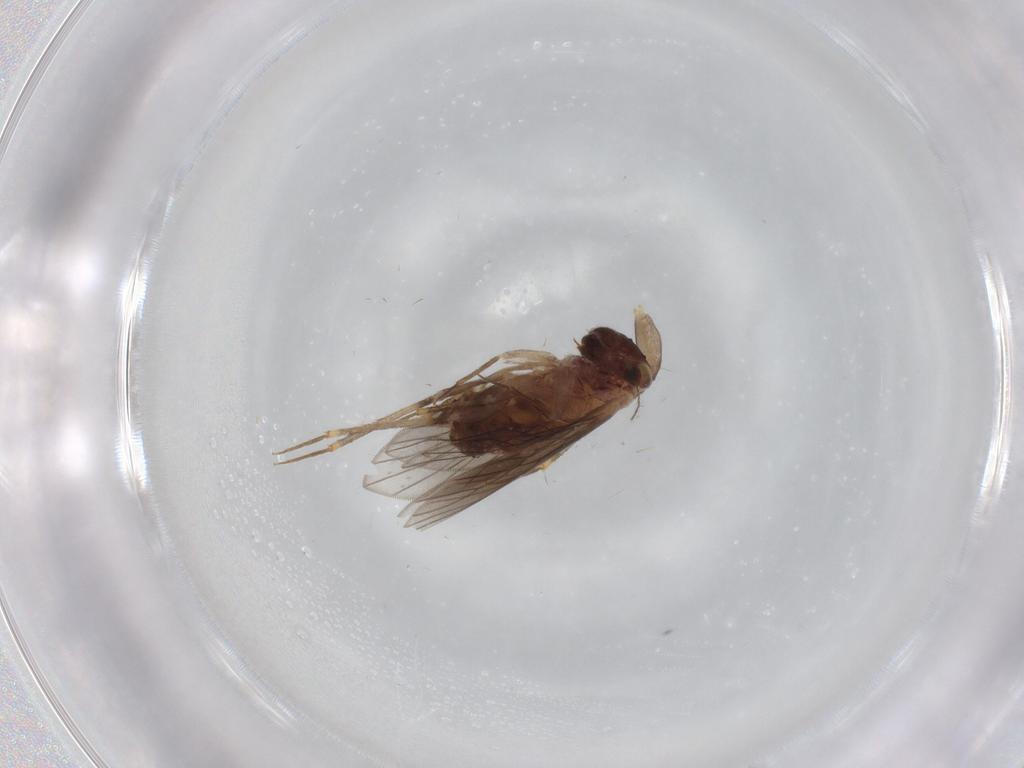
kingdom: Animalia
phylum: Arthropoda
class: Insecta
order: Psocodea
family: Lepidopsocidae
